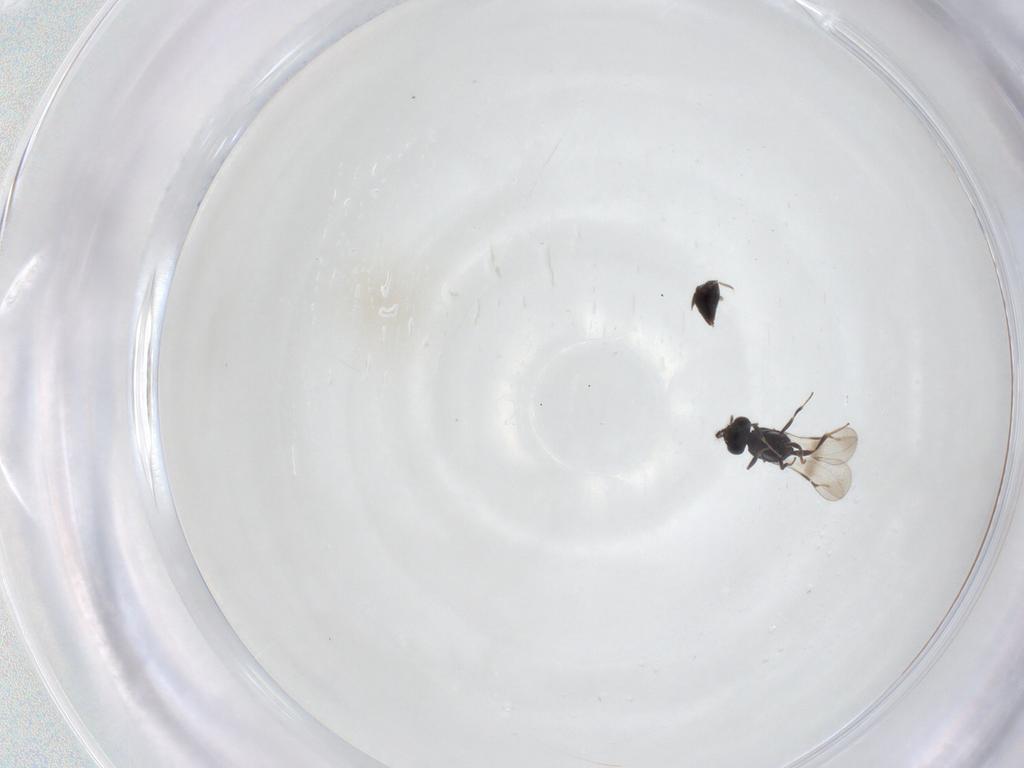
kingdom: Animalia
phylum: Arthropoda
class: Insecta
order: Hymenoptera
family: Ceraphronidae
